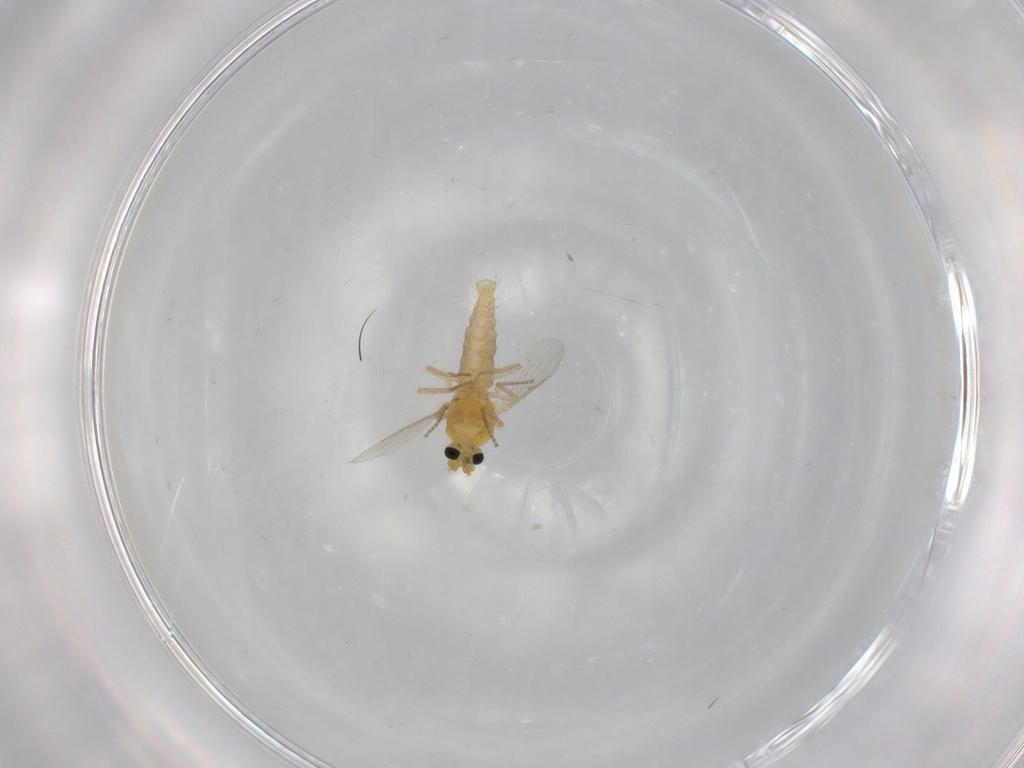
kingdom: Animalia
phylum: Arthropoda
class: Insecta
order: Diptera
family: Ceratopogonidae
